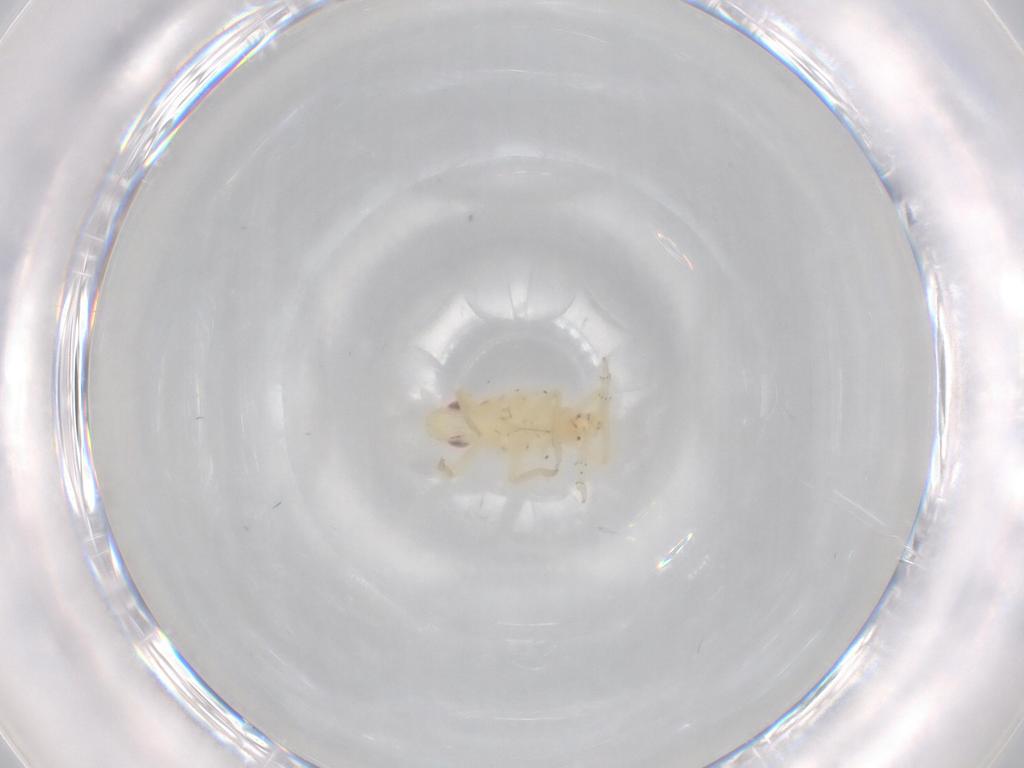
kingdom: Animalia
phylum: Arthropoda
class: Insecta
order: Hemiptera
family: Tropiduchidae
